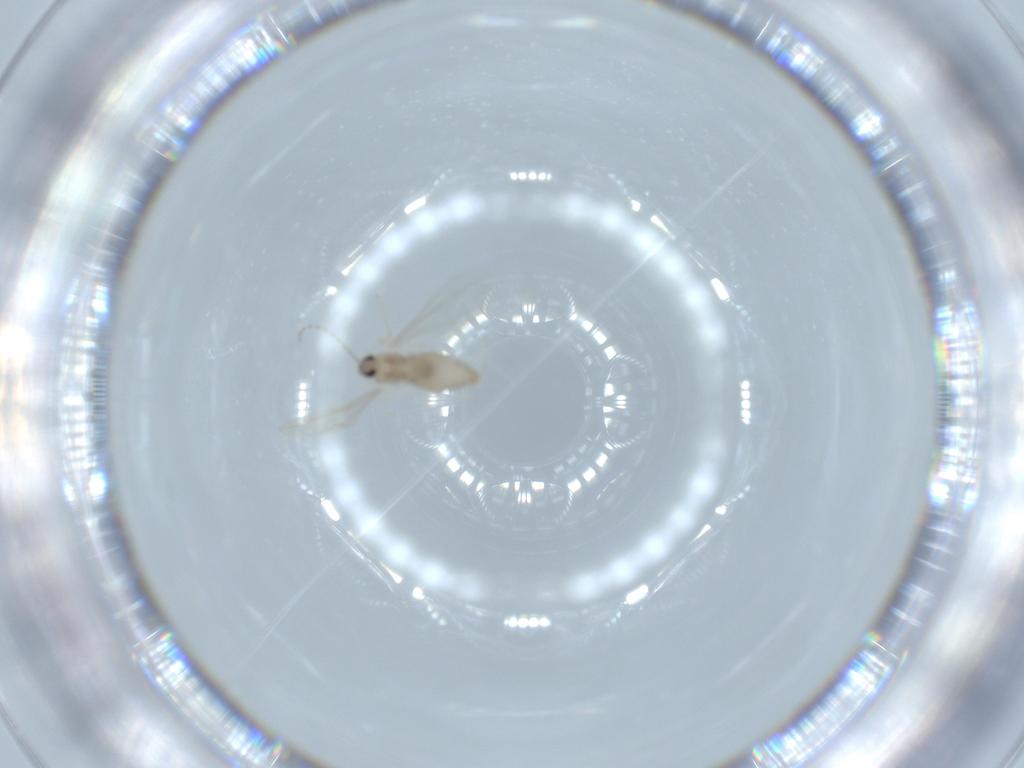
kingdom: Animalia
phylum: Arthropoda
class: Insecta
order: Diptera
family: Cecidomyiidae
